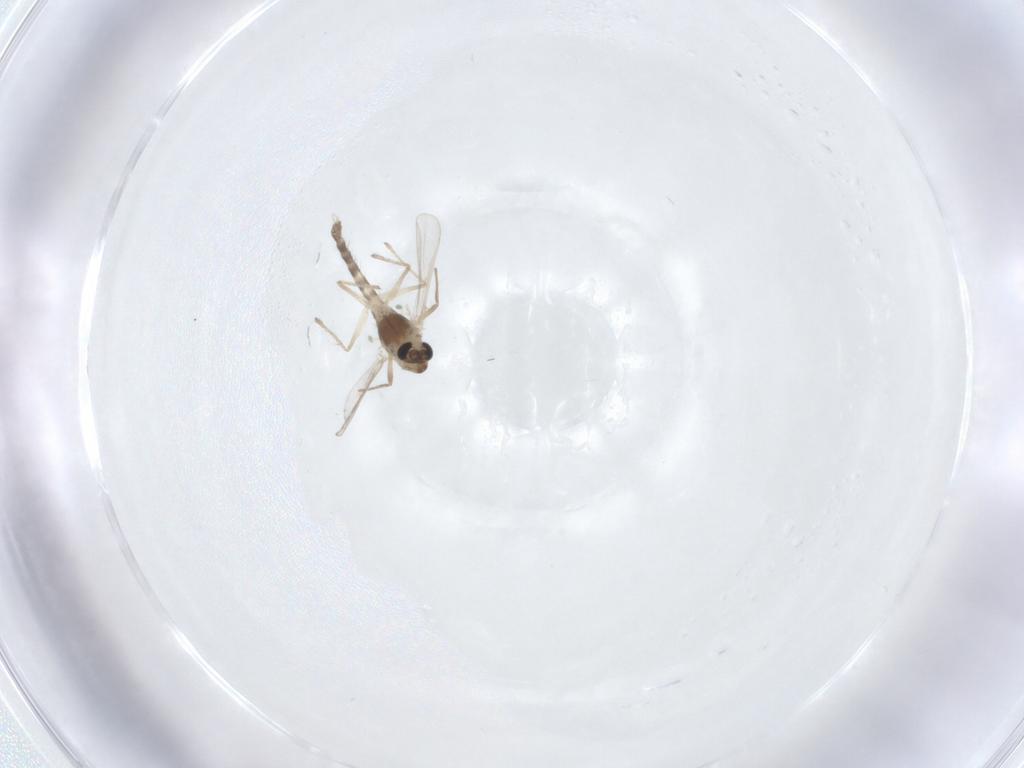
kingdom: Animalia
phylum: Arthropoda
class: Insecta
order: Diptera
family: Chironomidae
